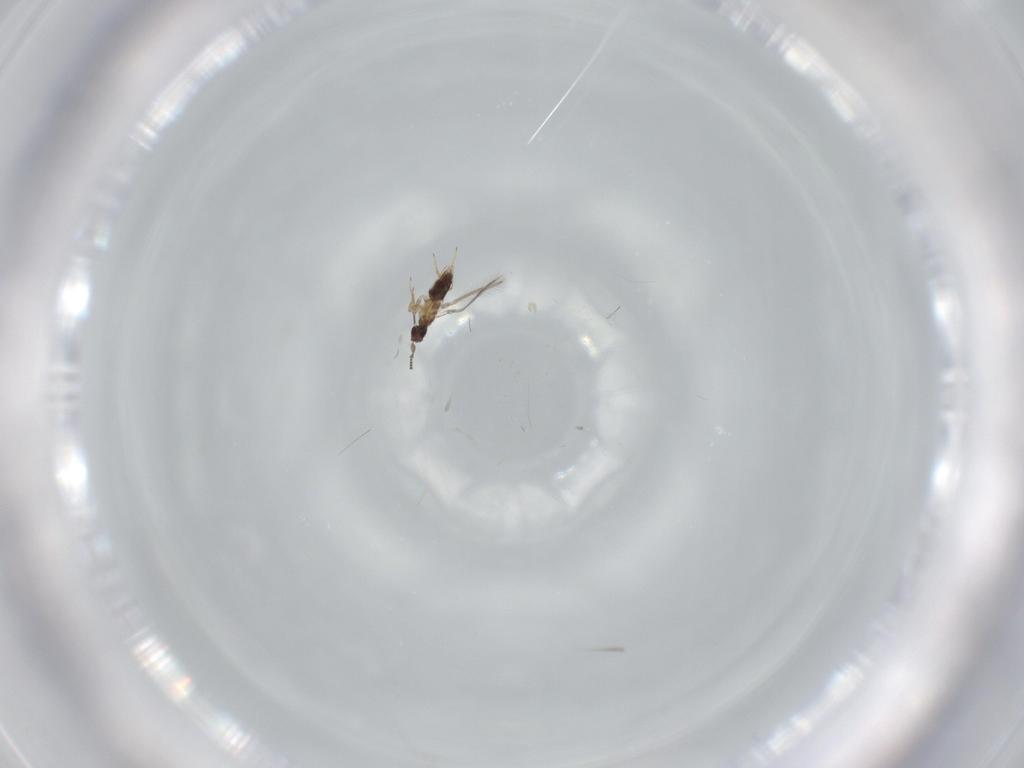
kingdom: Animalia
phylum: Arthropoda
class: Insecta
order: Hymenoptera
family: Mymaridae
